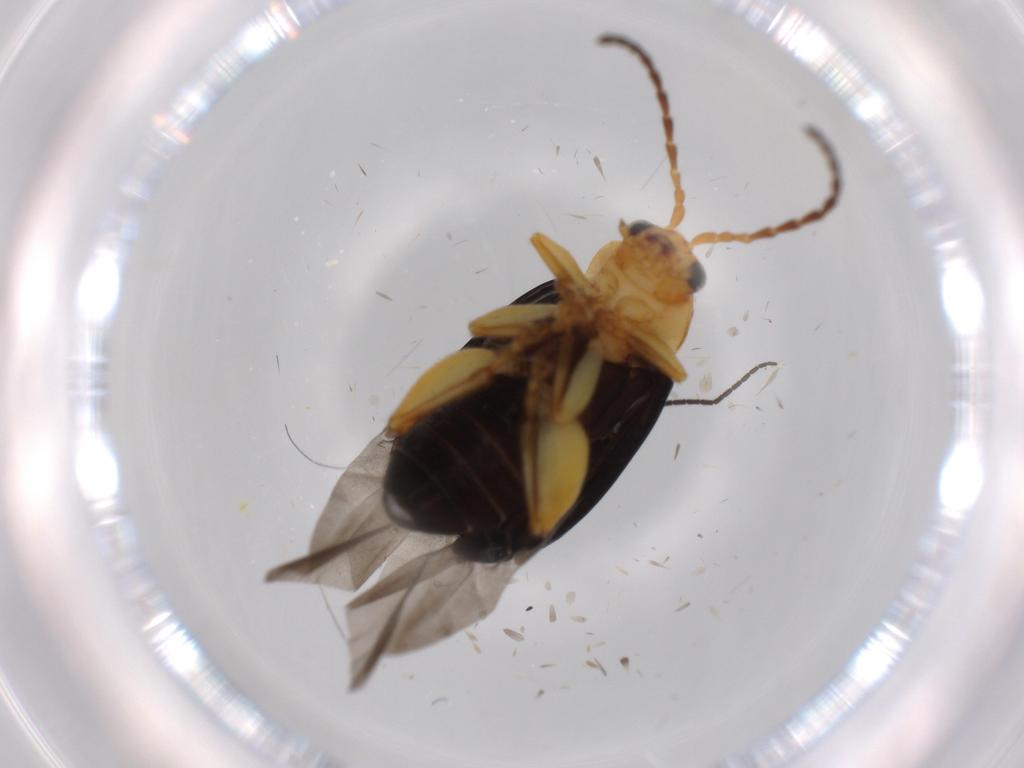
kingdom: Animalia
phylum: Arthropoda
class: Insecta
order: Coleoptera
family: Chrysomelidae
